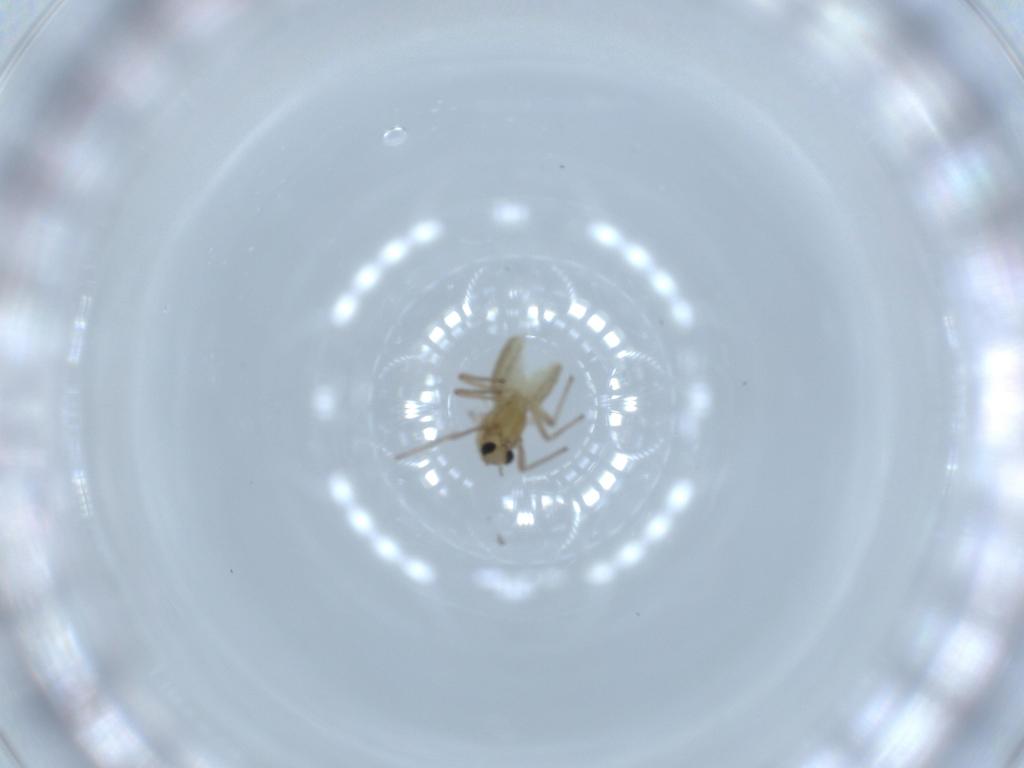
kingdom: Animalia
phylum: Arthropoda
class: Insecta
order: Diptera
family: Chironomidae
